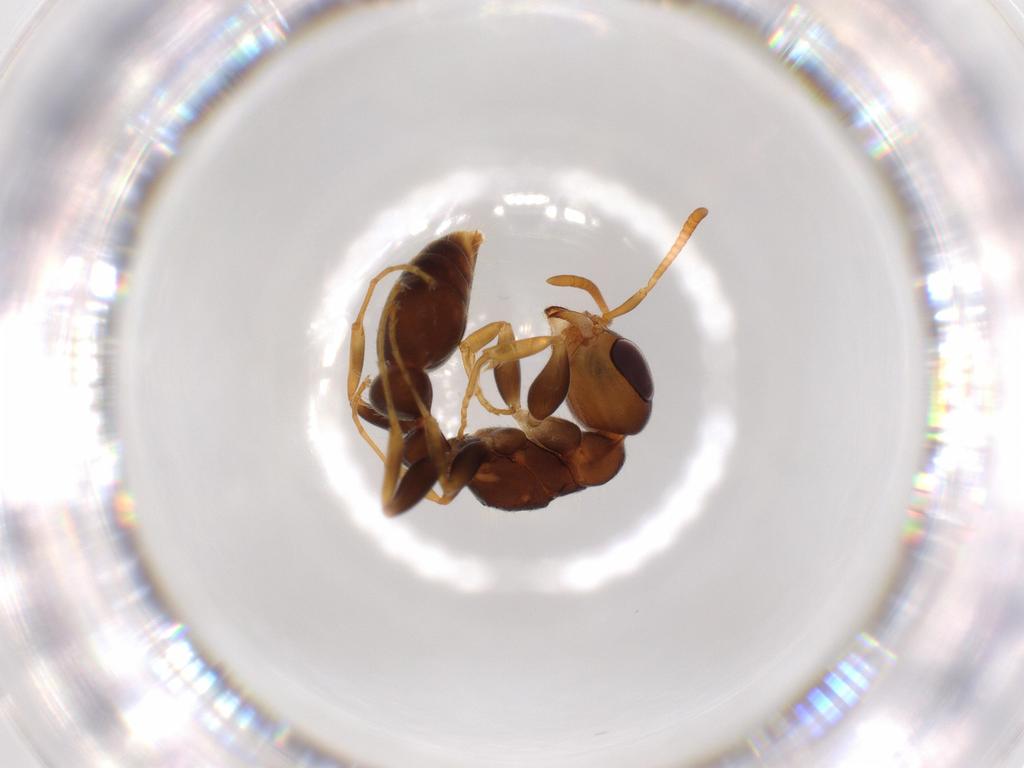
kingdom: Animalia
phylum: Arthropoda
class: Insecta
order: Hymenoptera
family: Formicidae
